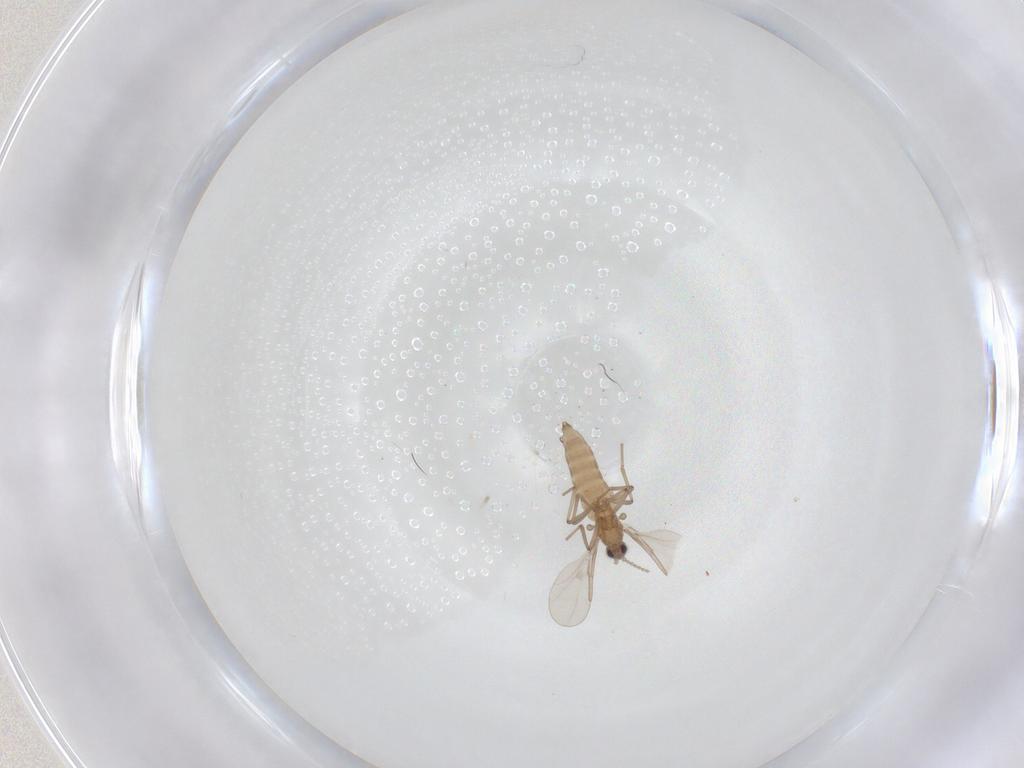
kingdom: Animalia
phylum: Arthropoda
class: Insecta
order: Diptera
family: Cecidomyiidae
